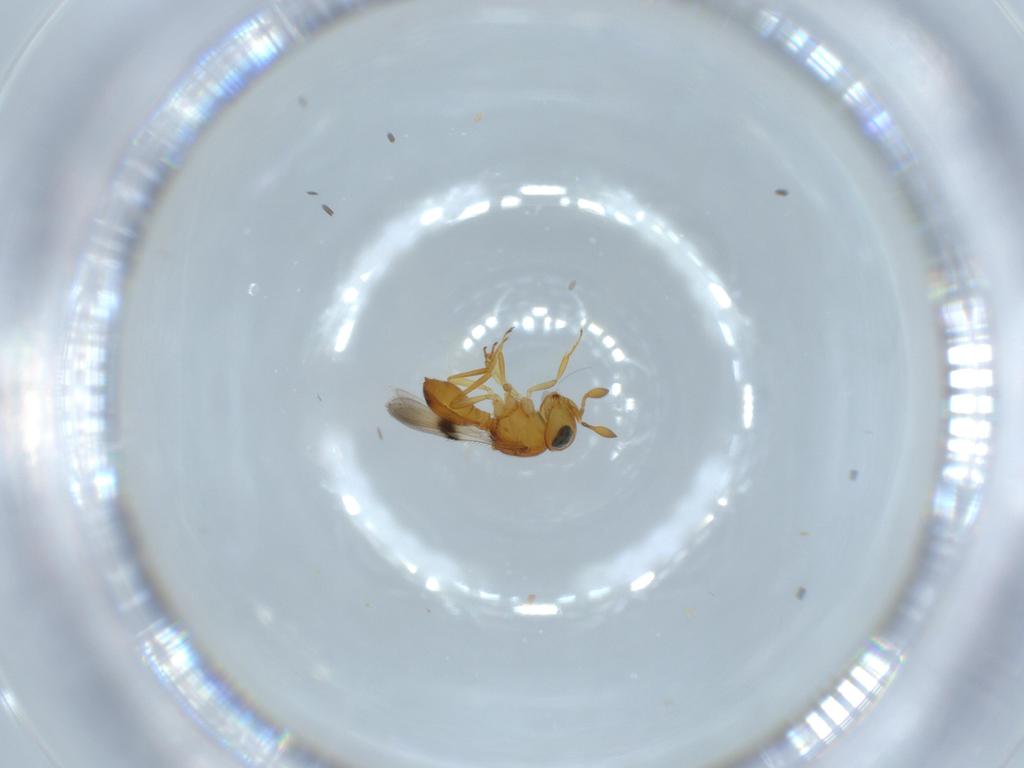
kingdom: Animalia
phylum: Arthropoda
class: Insecta
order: Hymenoptera
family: Scelionidae
